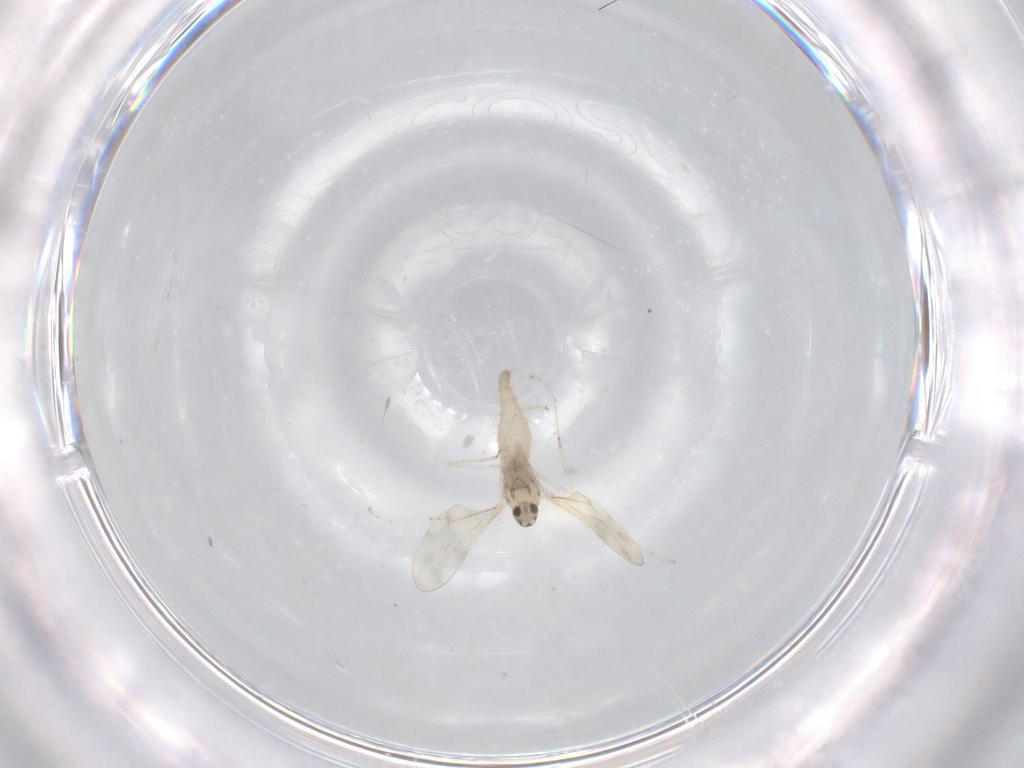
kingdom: Animalia
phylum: Arthropoda
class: Insecta
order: Diptera
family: Cecidomyiidae
